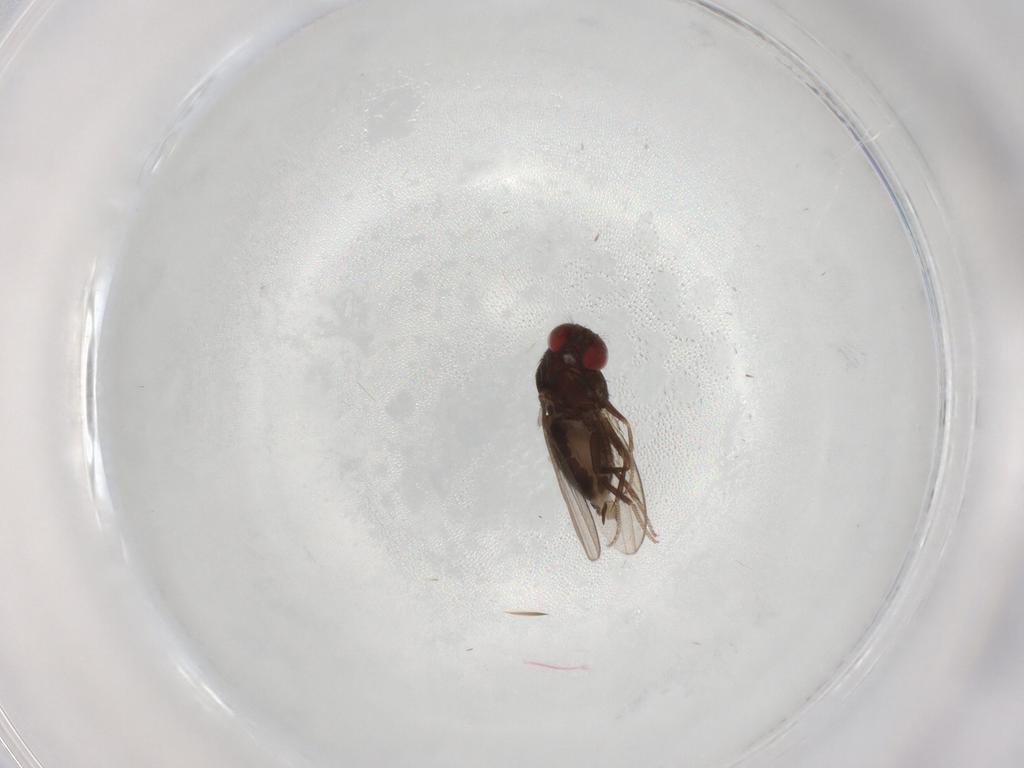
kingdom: Animalia
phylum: Arthropoda
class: Insecta
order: Diptera
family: Drosophilidae
